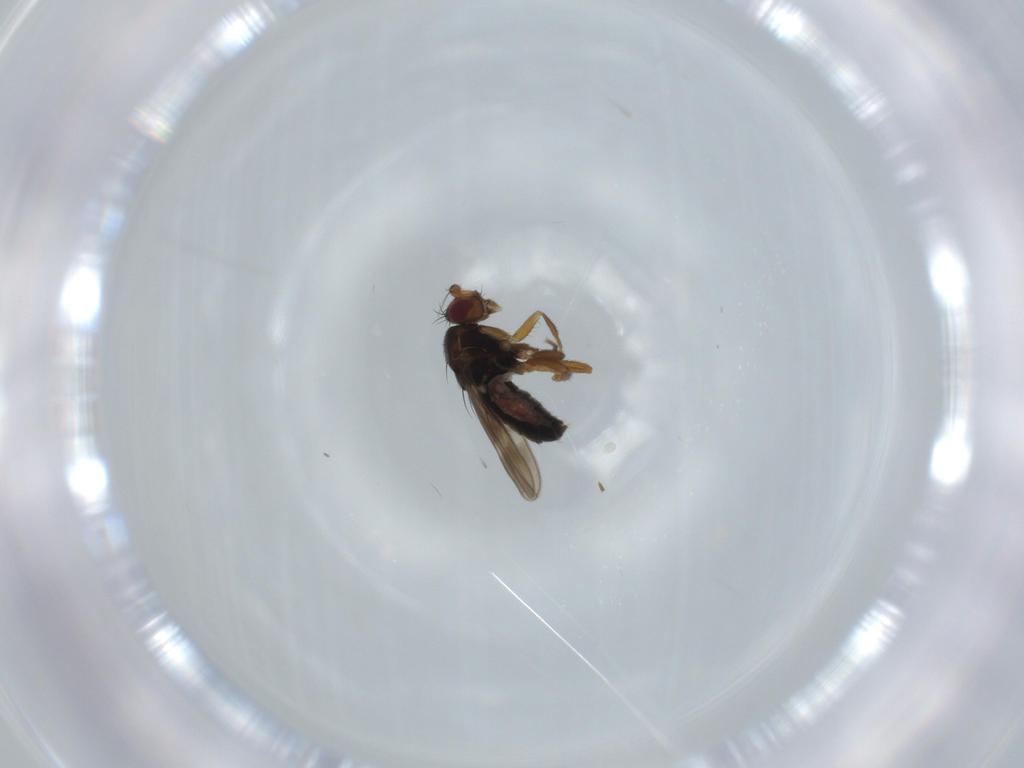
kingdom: Animalia
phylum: Arthropoda
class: Insecta
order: Diptera
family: Sphaeroceridae
